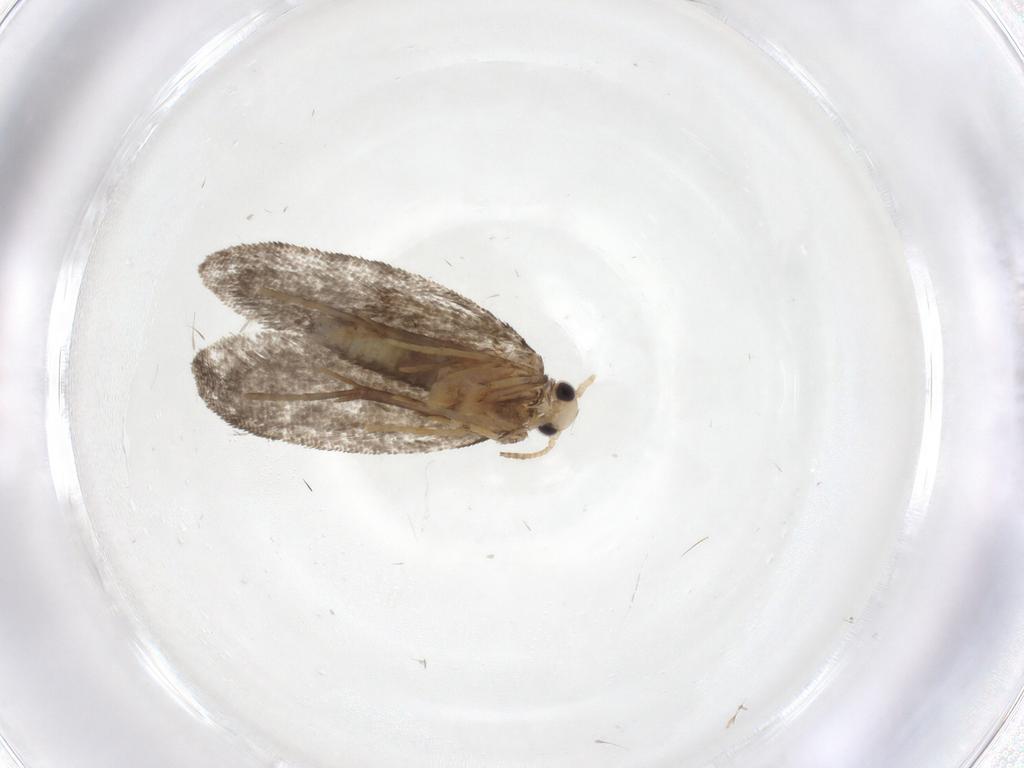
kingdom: Animalia
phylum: Arthropoda
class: Insecta
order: Lepidoptera
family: Psychidae
